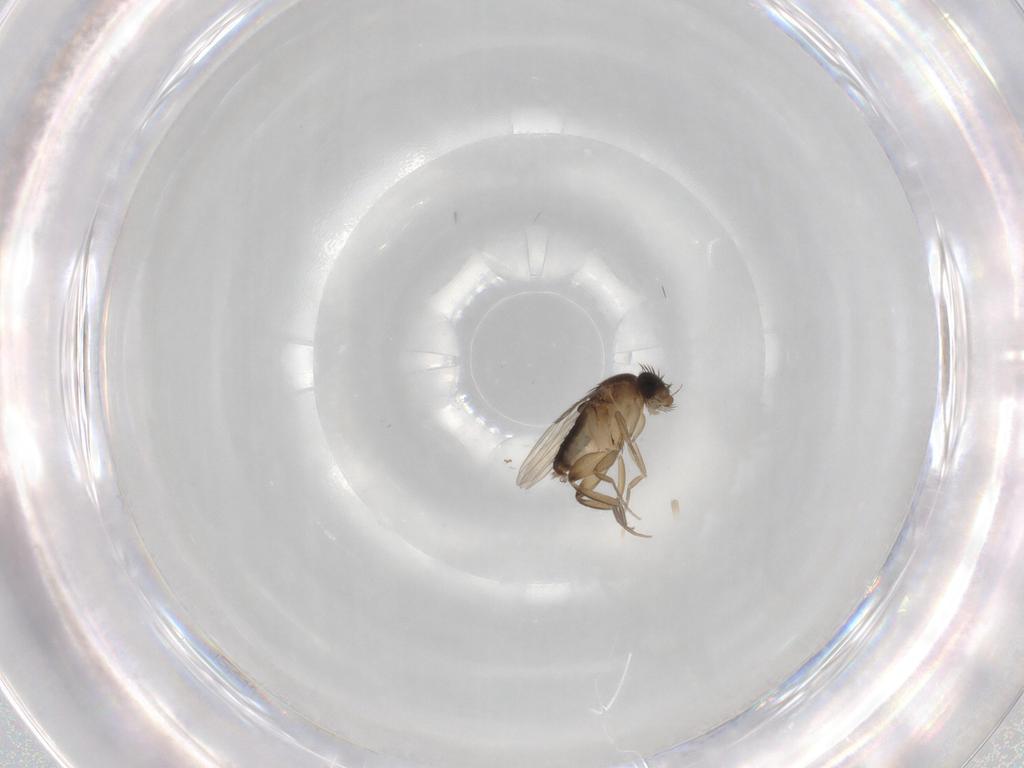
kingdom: Animalia
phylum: Arthropoda
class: Insecta
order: Diptera
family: Phoridae
